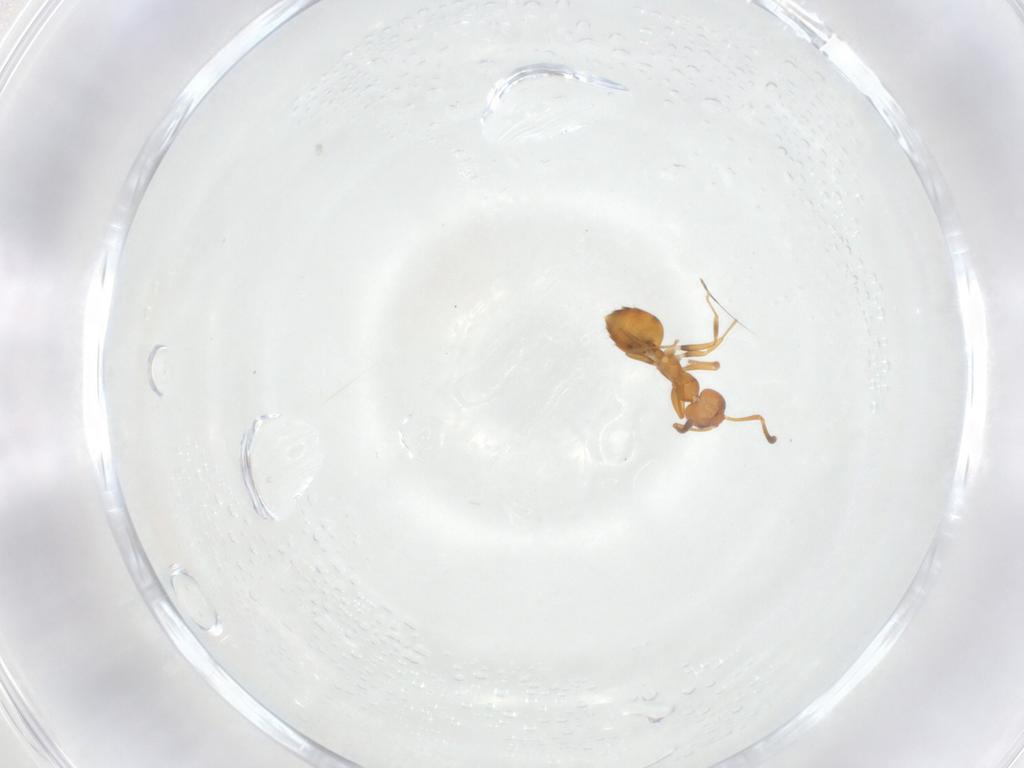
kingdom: Animalia
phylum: Arthropoda
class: Insecta
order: Hymenoptera
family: Formicidae
